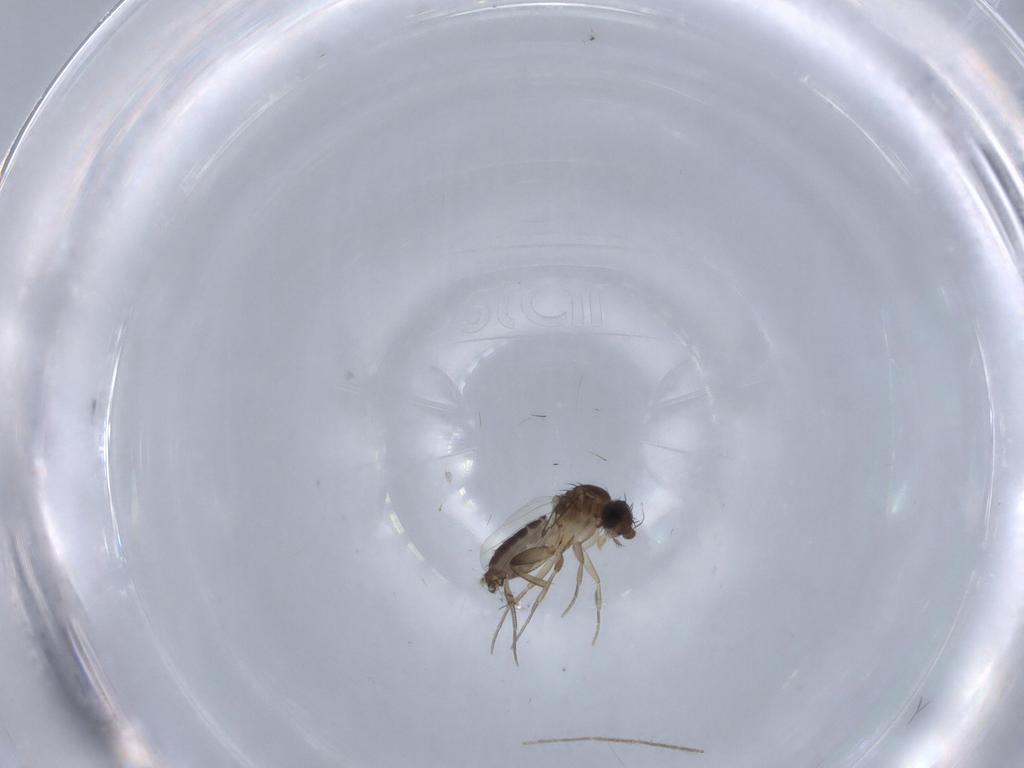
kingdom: Animalia
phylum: Arthropoda
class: Insecta
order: Diptera
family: Phoridae
